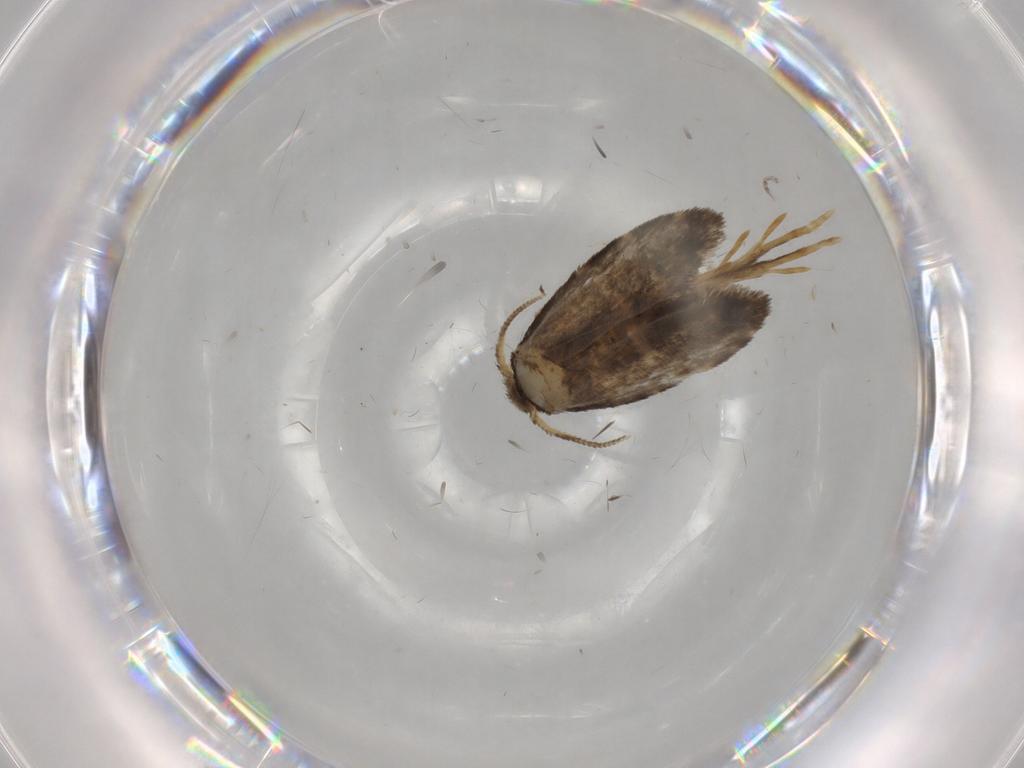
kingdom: Animalia
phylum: Arthropoda
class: Insecta
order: Lepidoptera
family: Psychidae
